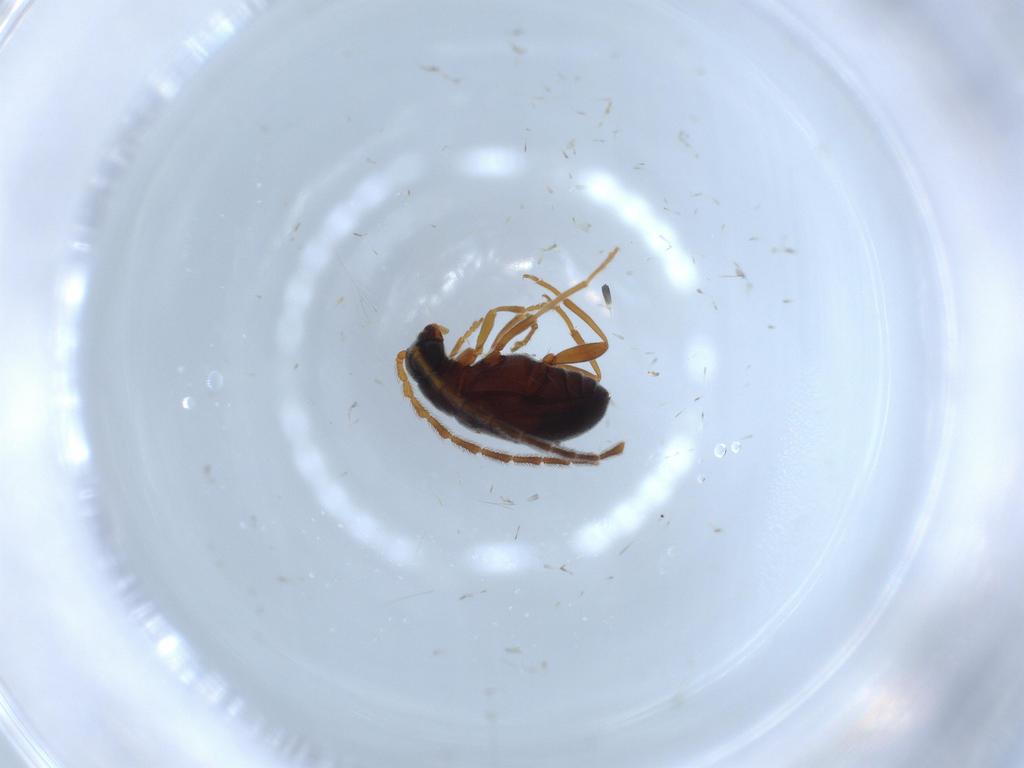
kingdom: Animalia
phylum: Arthropoda
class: Insecta
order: Coleoptera
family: Aderidae
